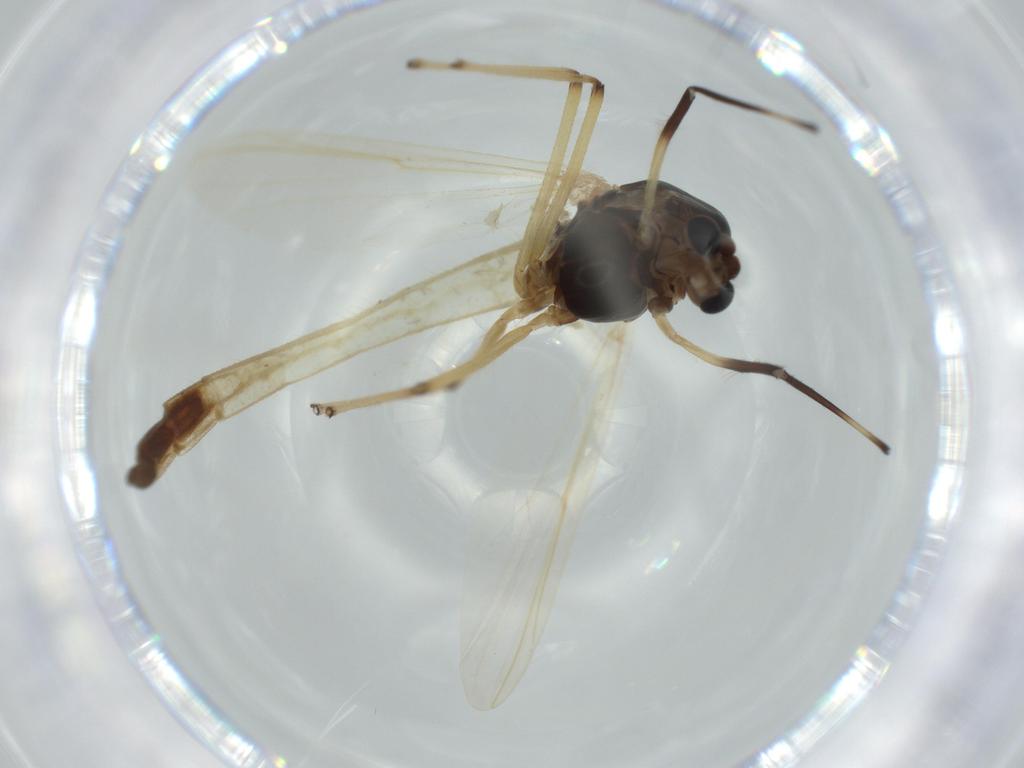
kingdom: Animalia
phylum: Arthropoda
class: Insecta
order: Diptera
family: Chironomidae
